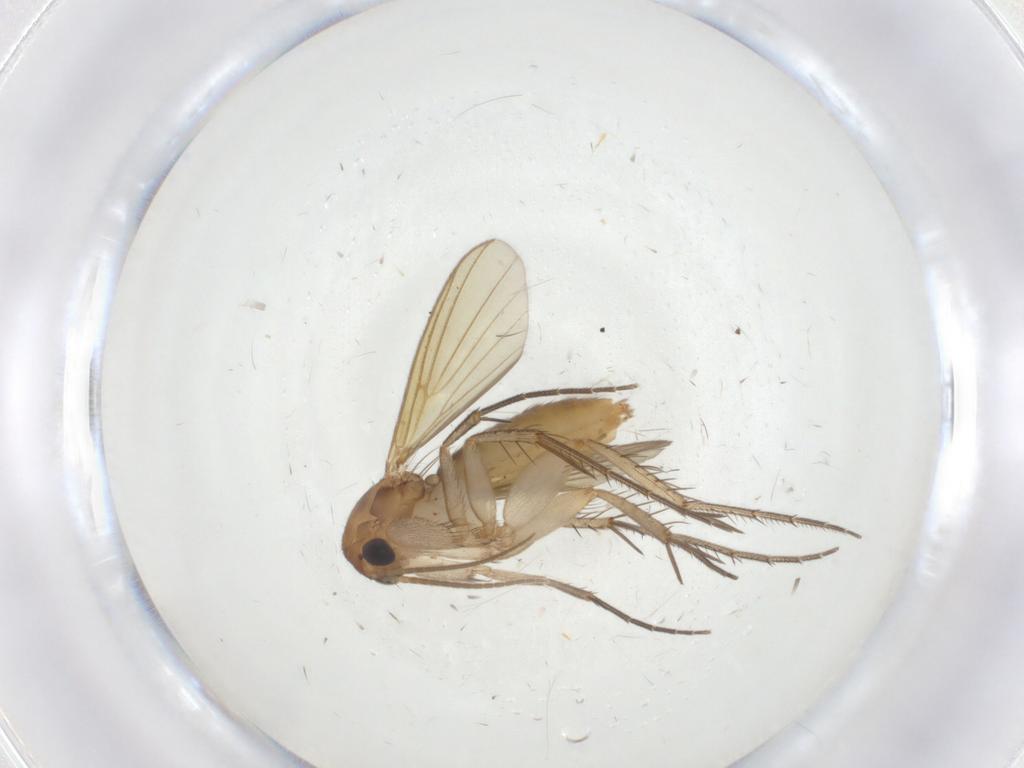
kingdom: Animalia
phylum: Arthropoda
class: Insecta
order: Diptera
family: Mycetophilidae
